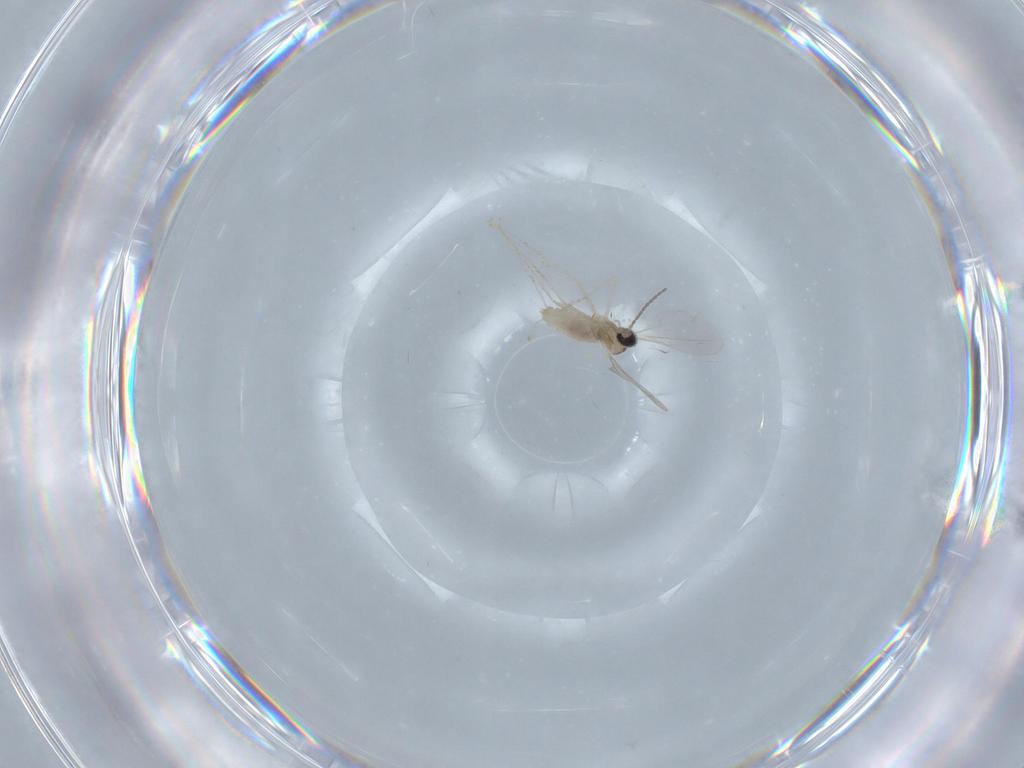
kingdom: Animalia
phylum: Arthropoda
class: Insecta
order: Diptera
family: Cecidomyiidae
